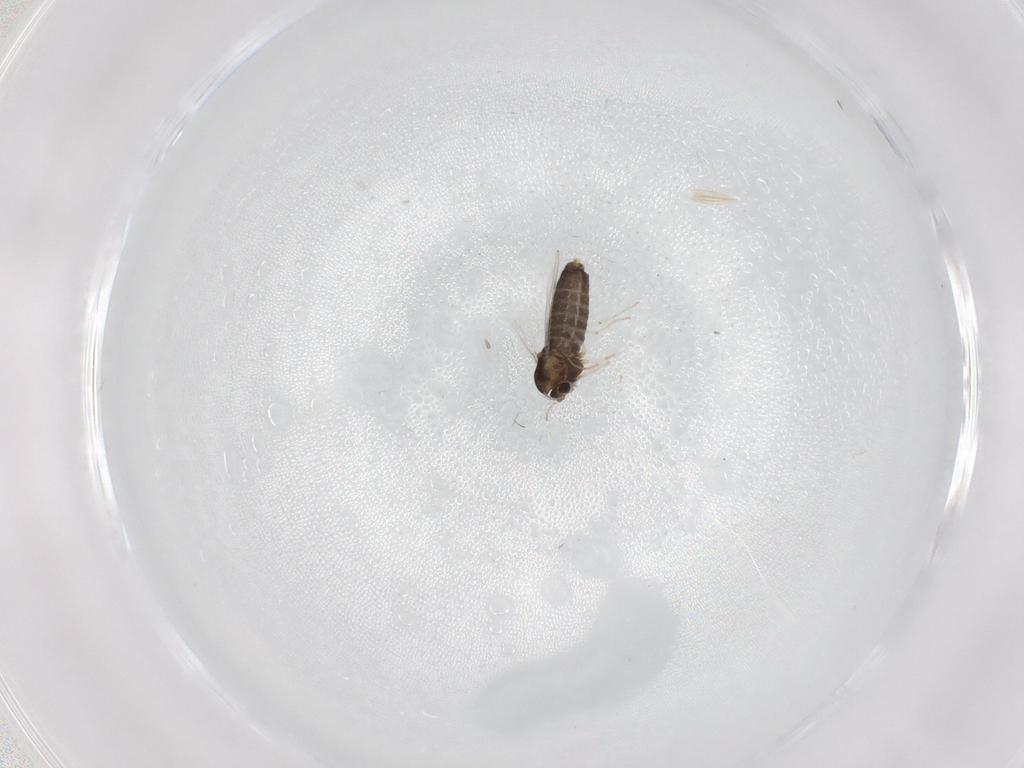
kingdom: Animalia
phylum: Arthropoda
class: Insecta
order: Diptera
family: Chironomidae
